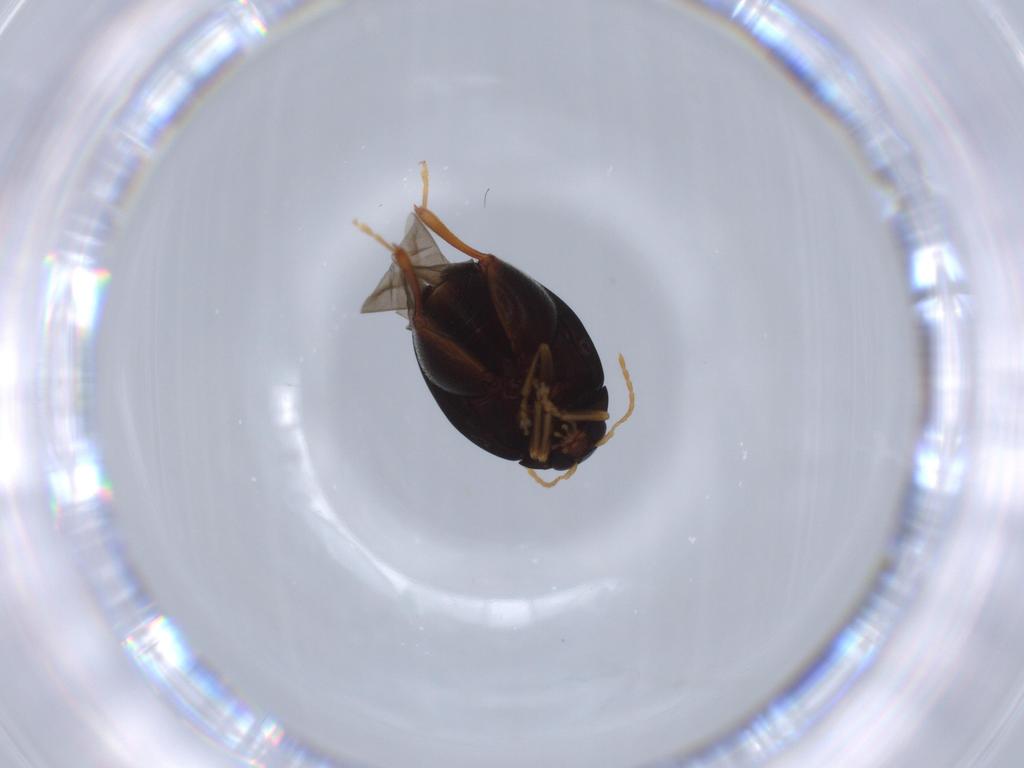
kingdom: Animalia
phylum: Arthropoda
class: Insecta
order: Coleoptera
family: Chrysomelidae
